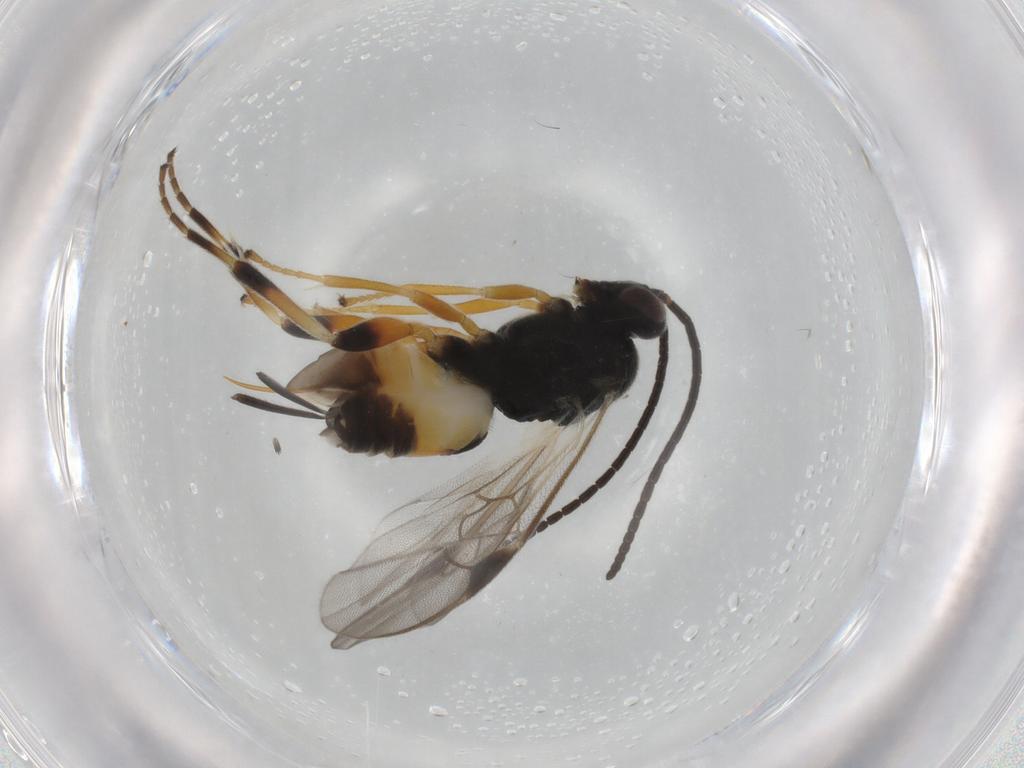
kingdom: Animalia
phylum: Arthropoda
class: Insecta
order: Hymenoptera
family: Braconidae
